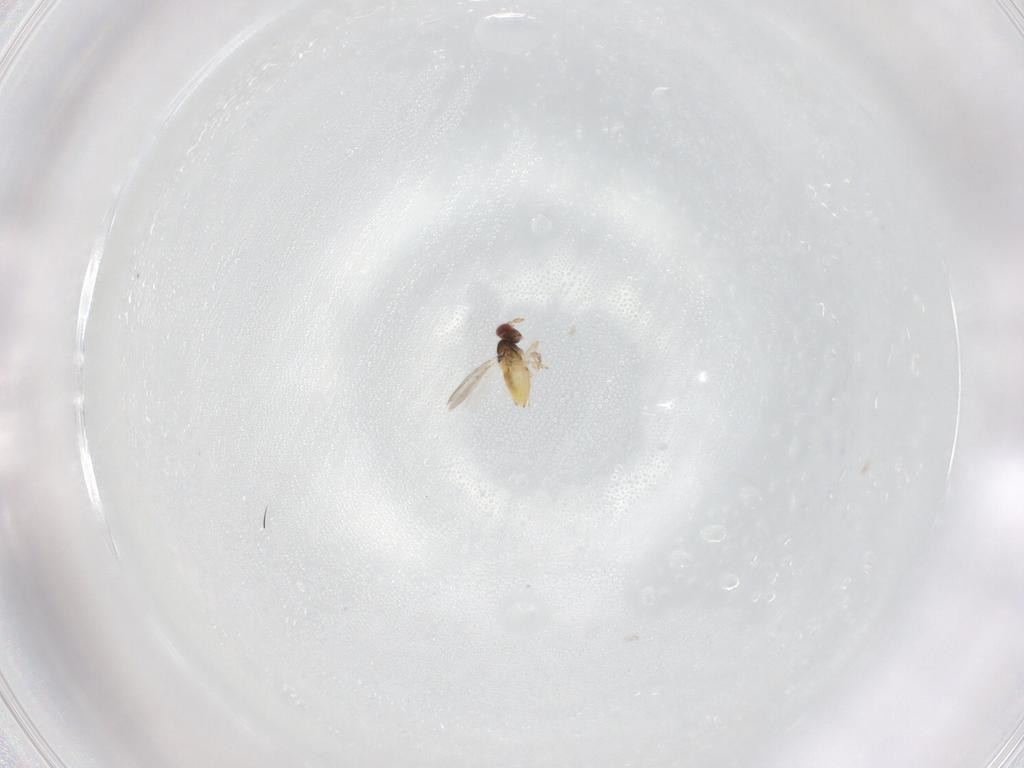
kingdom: Animalia
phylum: Arthropoda
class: Insecta
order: Hymenoptera
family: Trichogrammatidae
